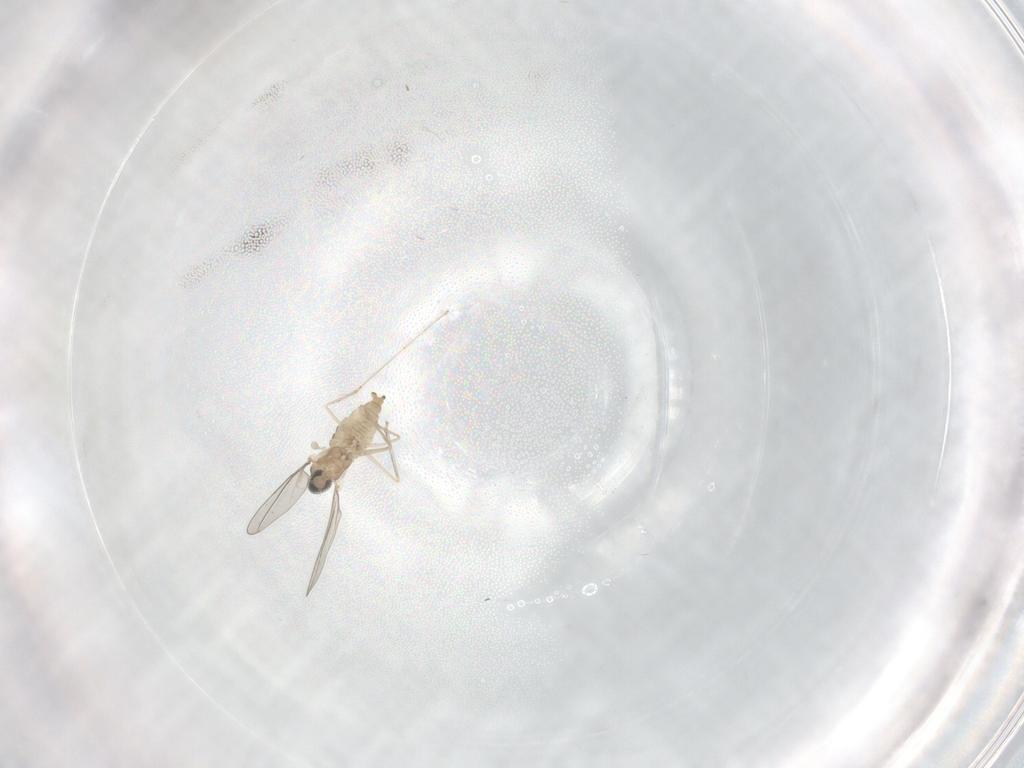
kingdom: Animalia
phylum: Arthropoda
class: Insecta
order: Diptera
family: Cecidomyiidae
